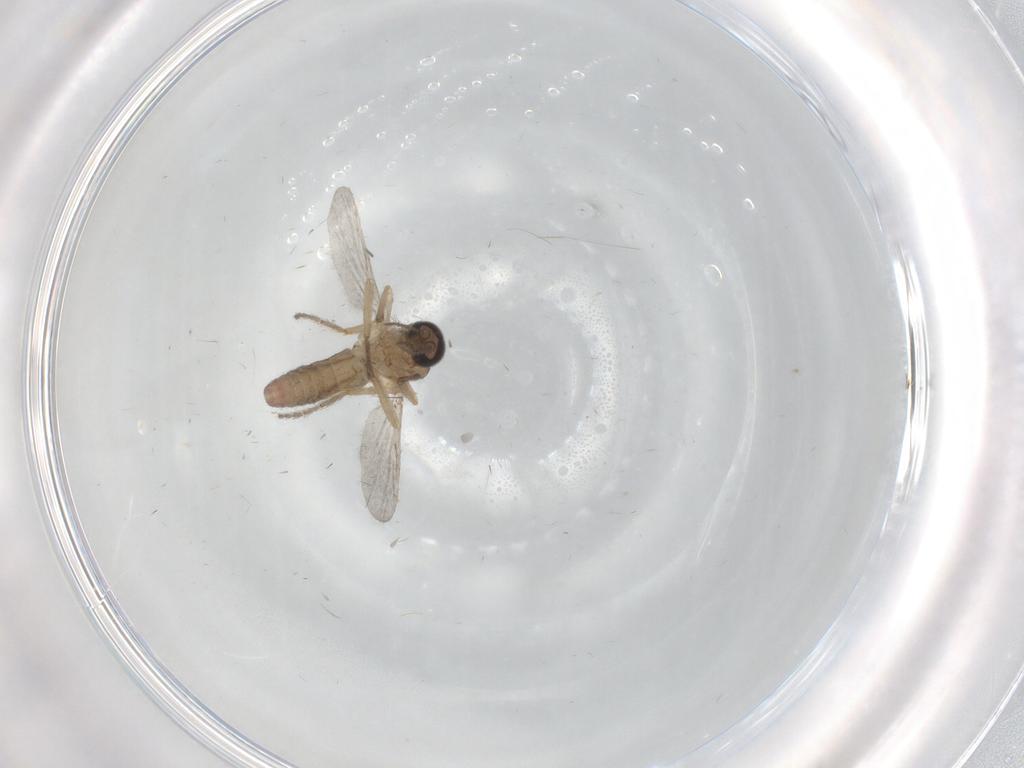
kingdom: Animalia
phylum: Arthropoda
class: Insecta
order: Diptera
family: Ceratopogonidae
